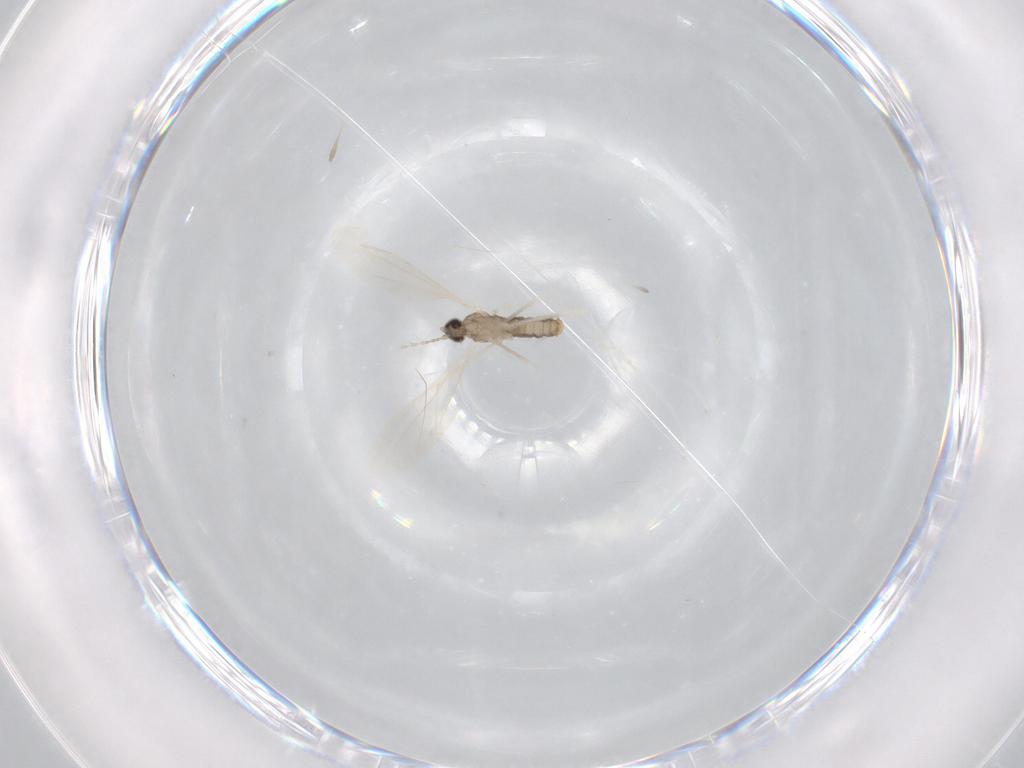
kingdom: Animalia
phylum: Arthropoda
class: Insecta
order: Diptera
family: Cecidomyiidae
